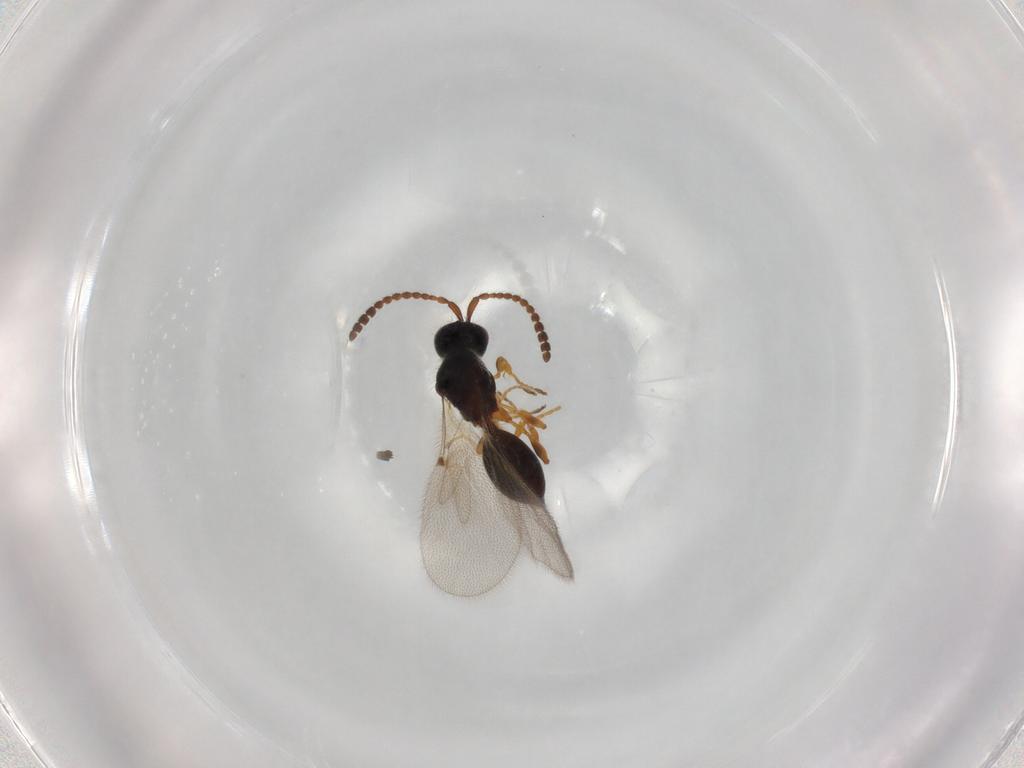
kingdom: Animalia
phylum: Arthropoda
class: Insecta
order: Hymenoptera
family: Diapriidae
